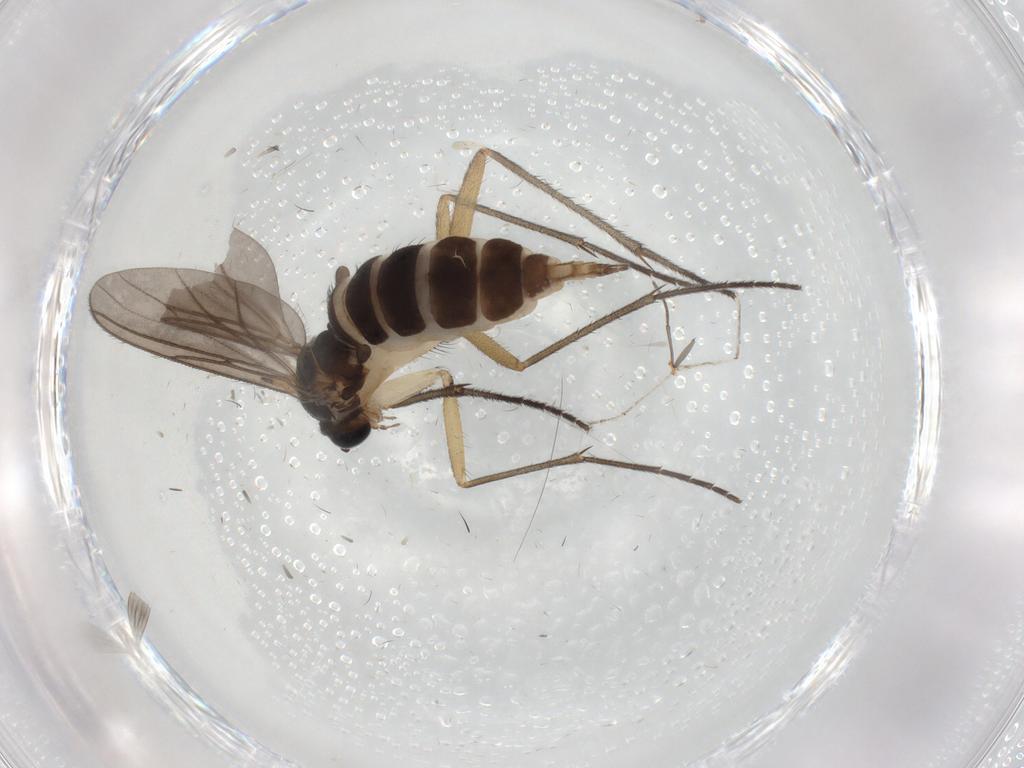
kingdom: Animalia
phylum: Arthropoda
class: Insecta
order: Diptera
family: Sciaridae
